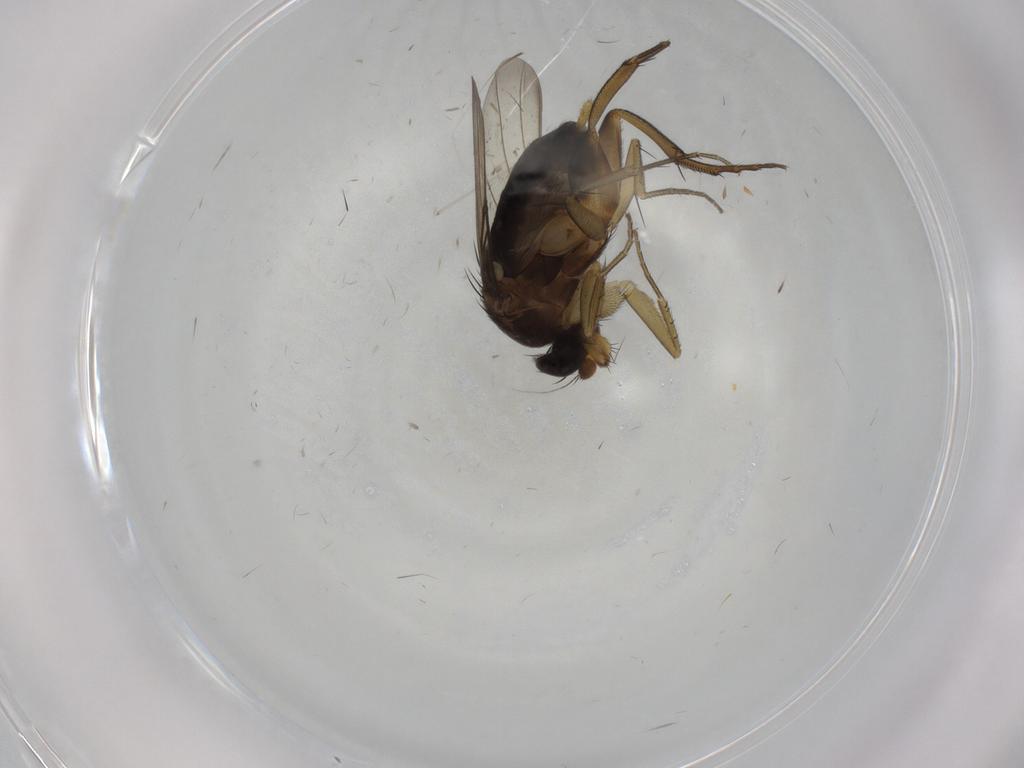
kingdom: Animalia
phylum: Arthropoda
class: Insecta
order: Diptera
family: Phoridae
